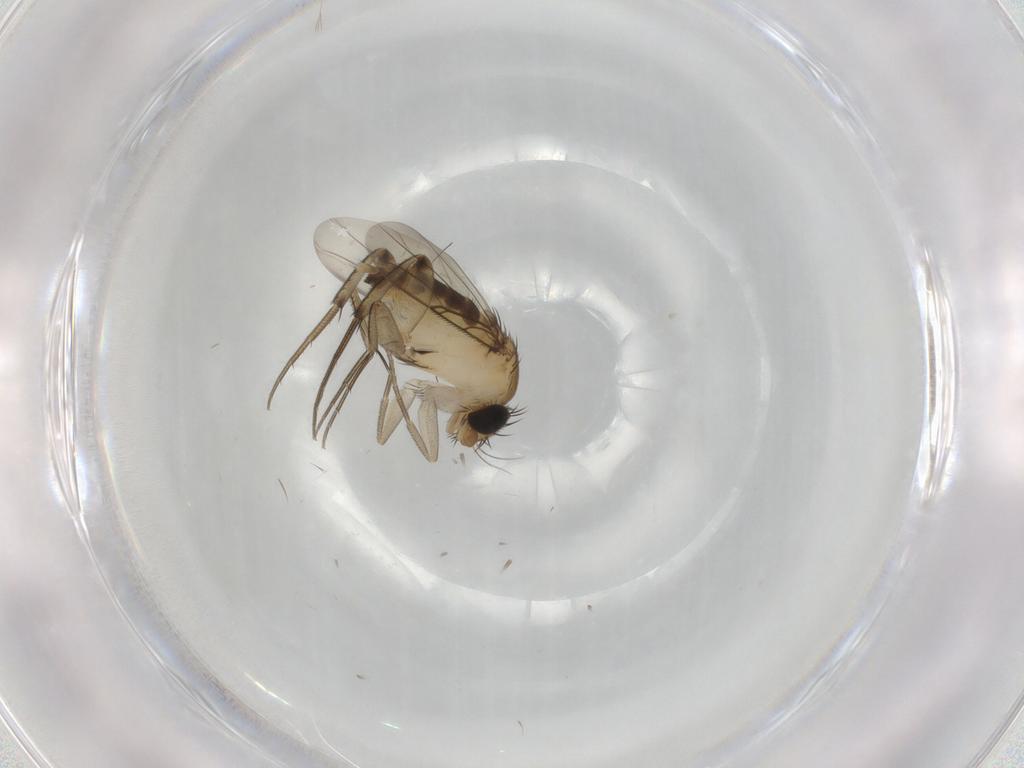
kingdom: Animalia
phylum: Arthropoda
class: Insecta
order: Diptera
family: Phoridae
